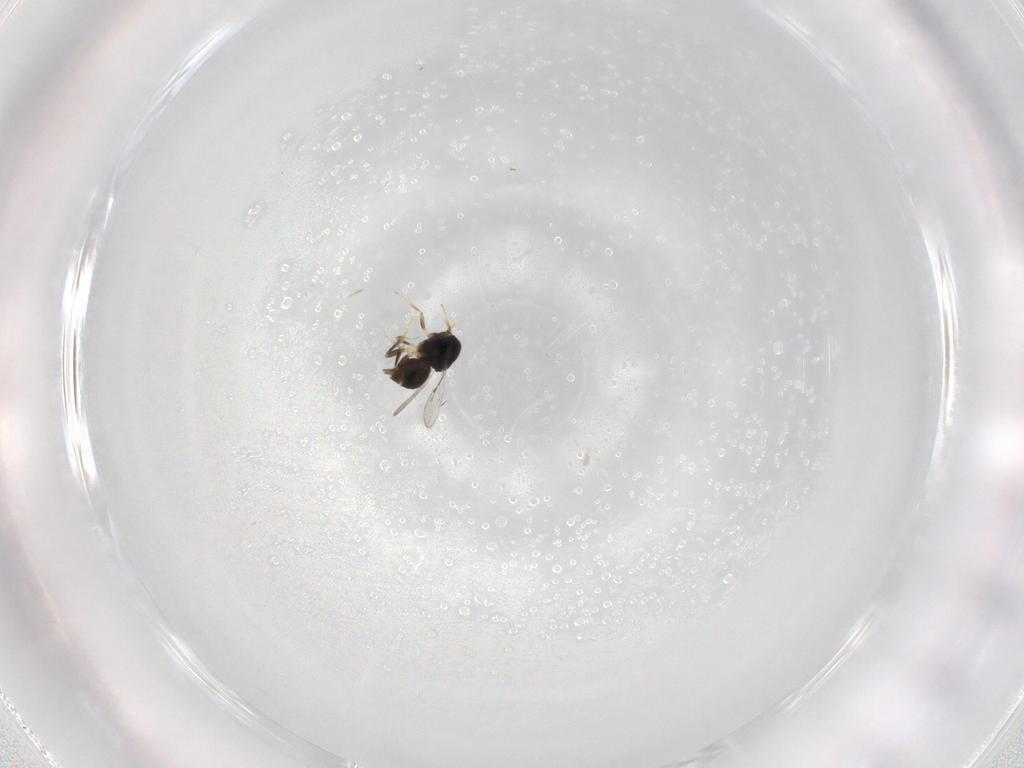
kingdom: Animalia
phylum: Arthropoda
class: Insecta
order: Hymenoptera
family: Ceraphronidae
